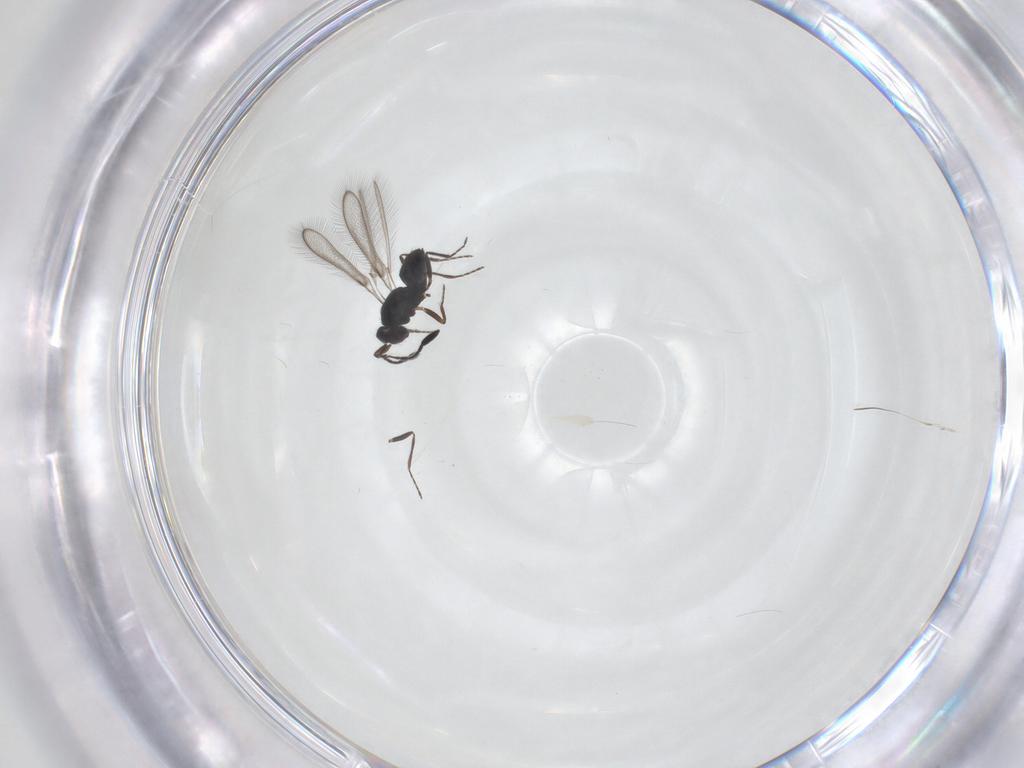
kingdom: Animalia
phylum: Arthropoda
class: Insecta
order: Hymenoptera
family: Mymaridae
